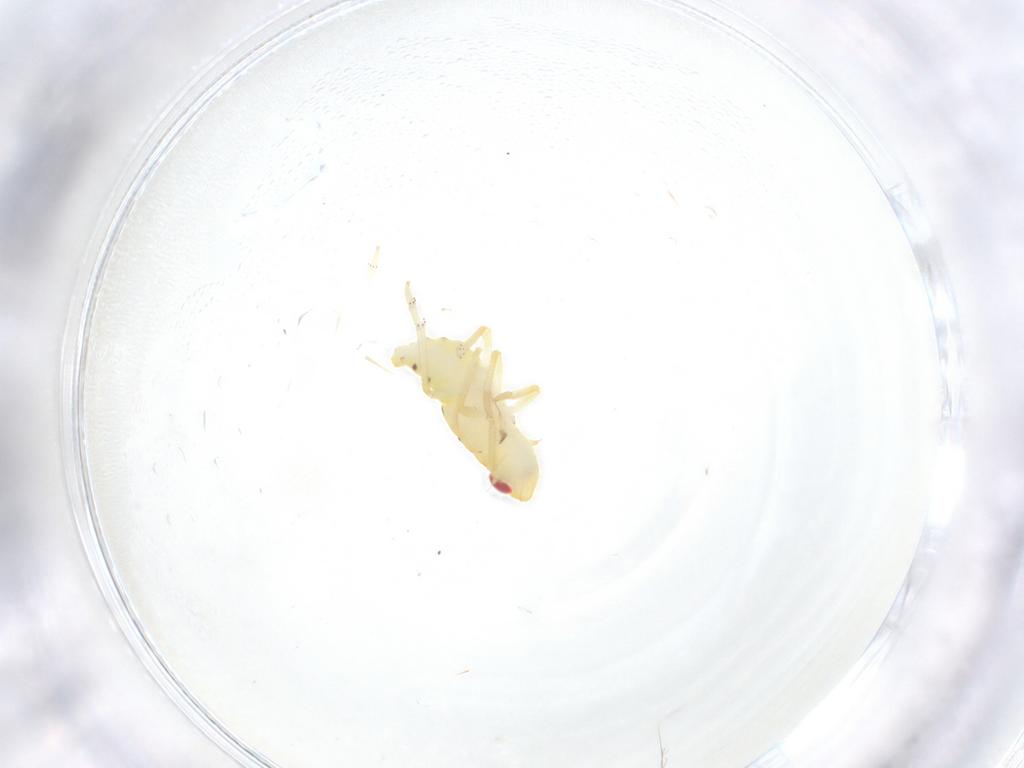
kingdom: Animalia
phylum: Arthropoda
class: Insecta
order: Hemiptera
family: Tropiduchidae
